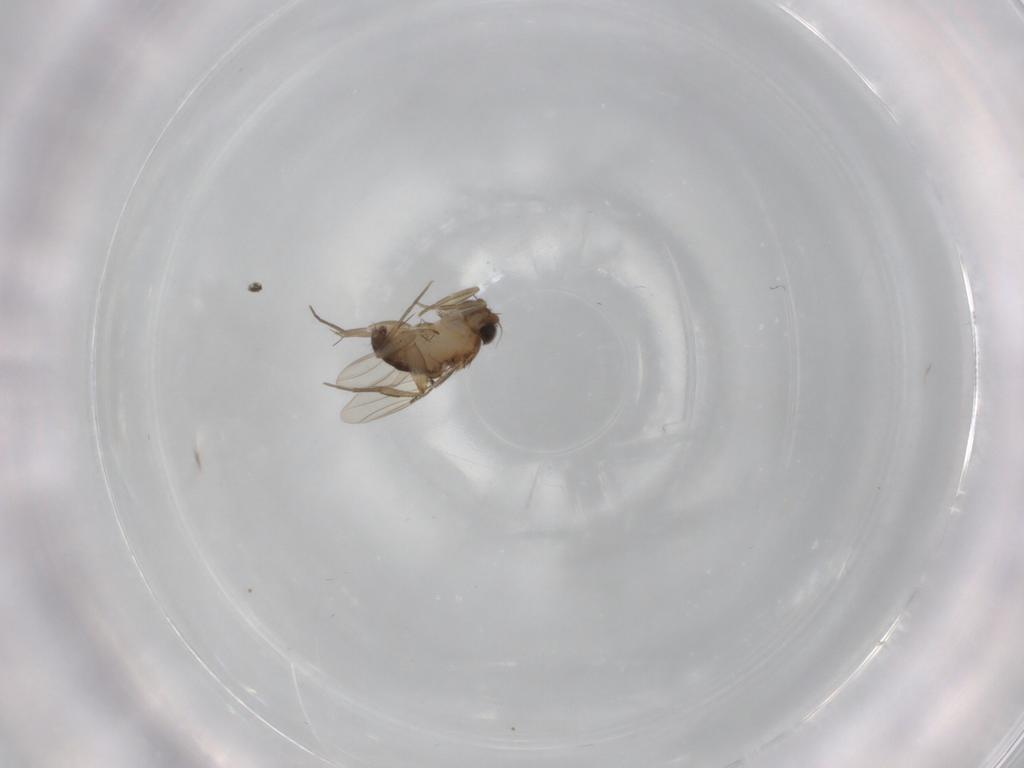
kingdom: Animalia
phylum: Arthropoda
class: Insecta
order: Diptera
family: Phoridae
